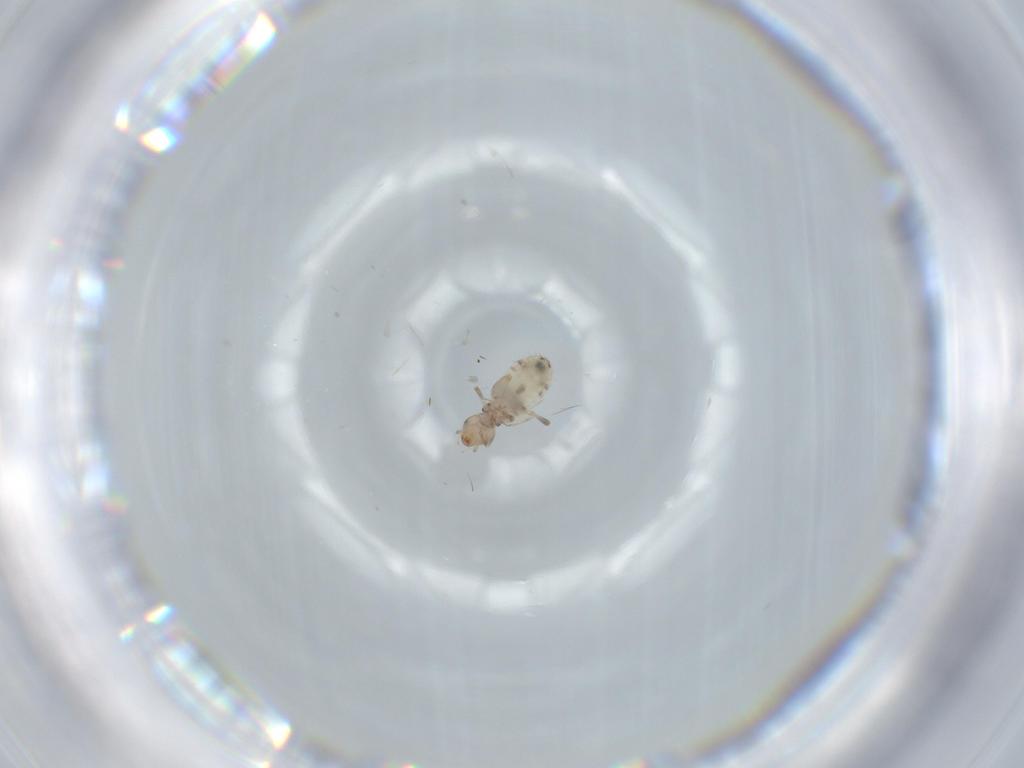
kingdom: Animalia
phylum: Arthropoda
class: Insecta
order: Psocodea
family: Liposcelididae
